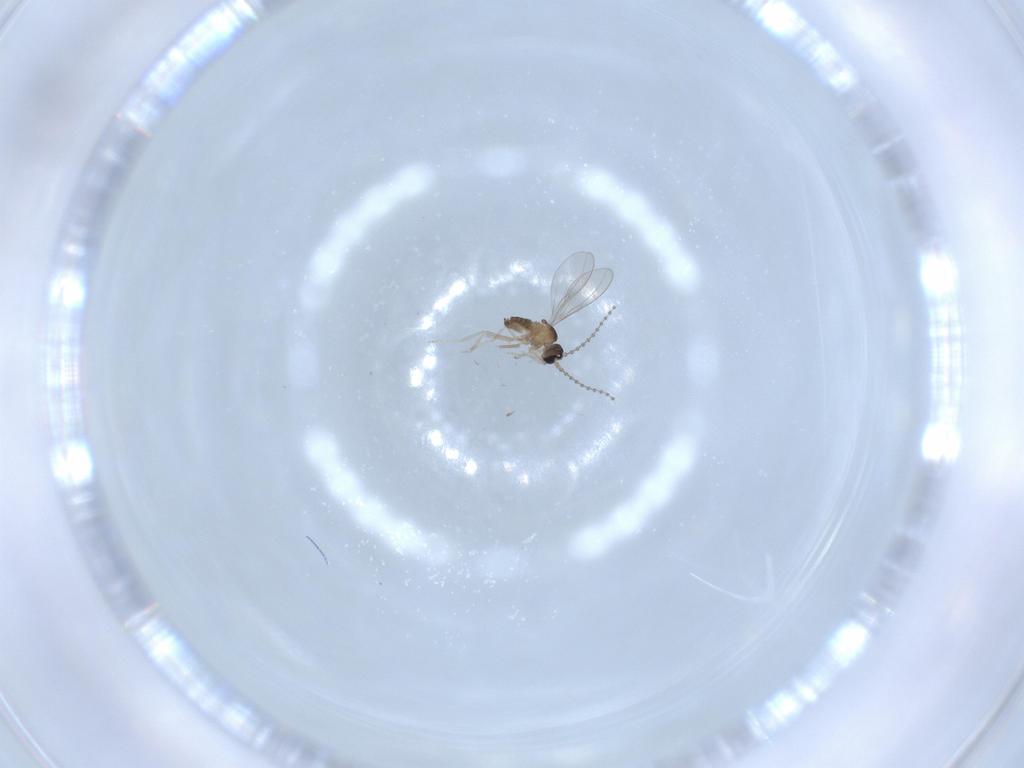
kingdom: Animalia
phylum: Arthropoda
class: Insecta
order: Diptera
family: Cecidomyiidae
